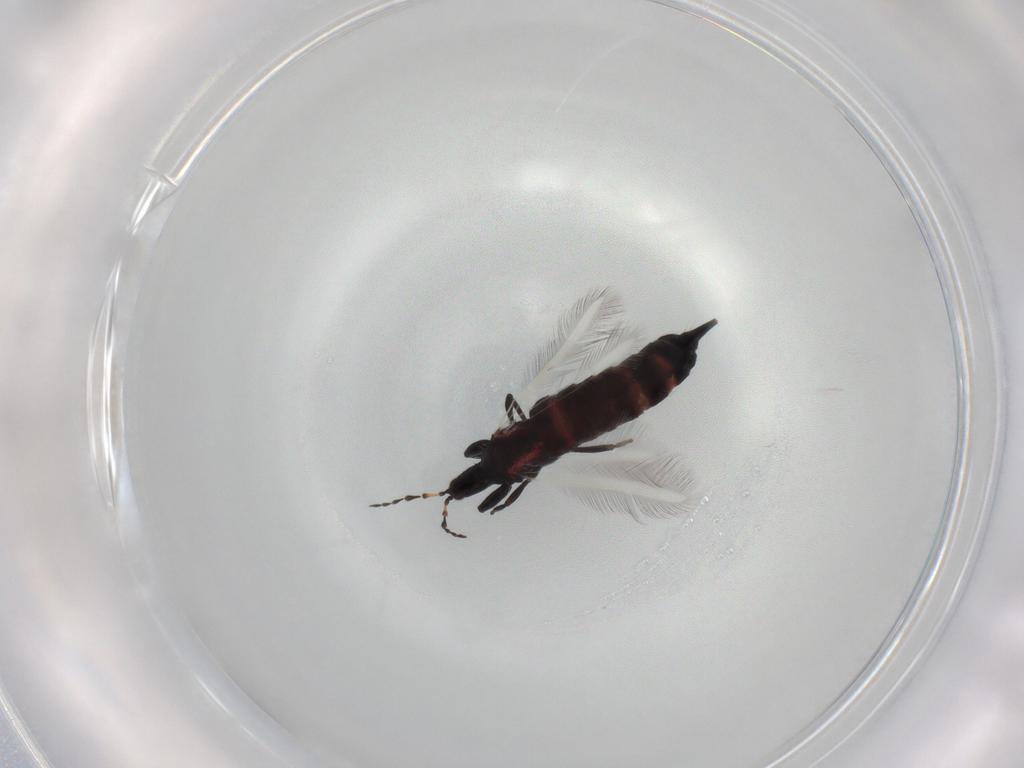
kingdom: Animalia
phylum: Arthropoda
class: Insecta
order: Thysanoptera
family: Phlaeothripidae
